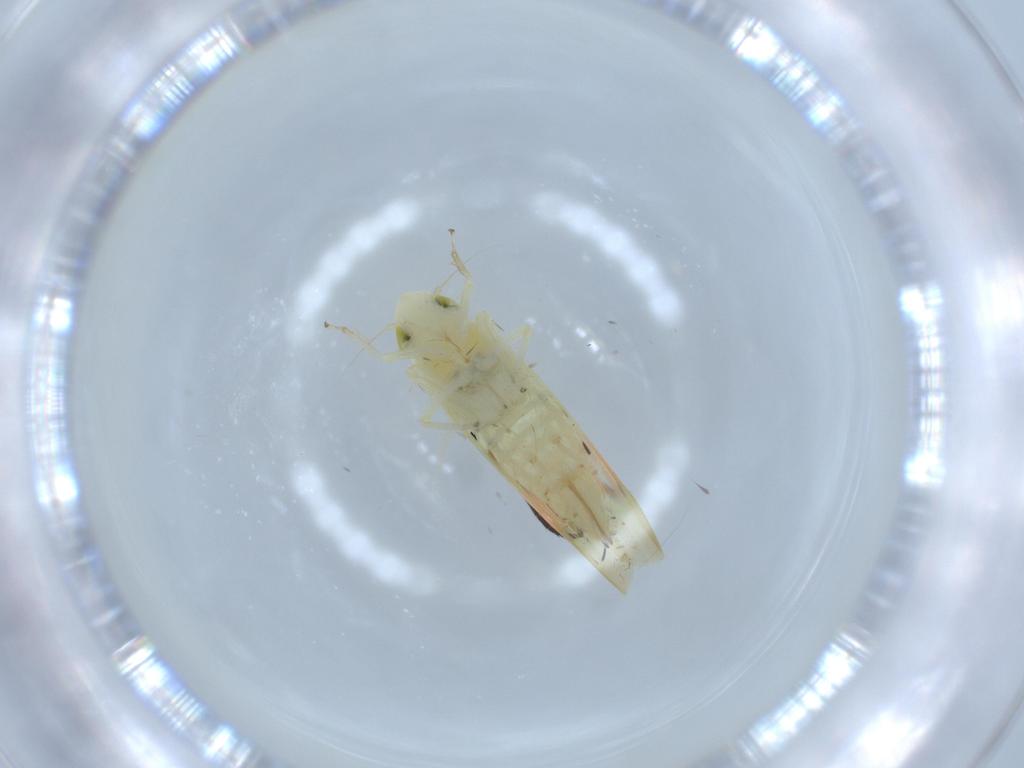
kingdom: Animalia
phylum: Arthropoda
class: Insecta
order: Hemiptera
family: Cicadellidae
